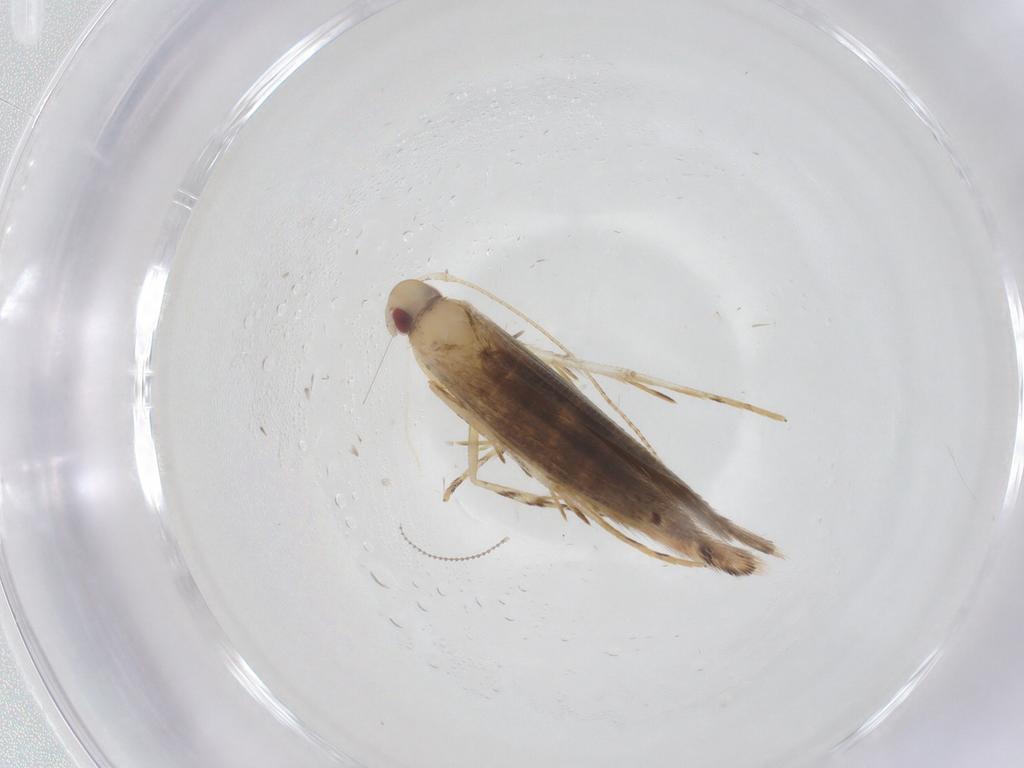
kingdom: Animalia
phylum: Arthropoda
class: Insecta
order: Lepidoptera
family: Cosmopterigidae
